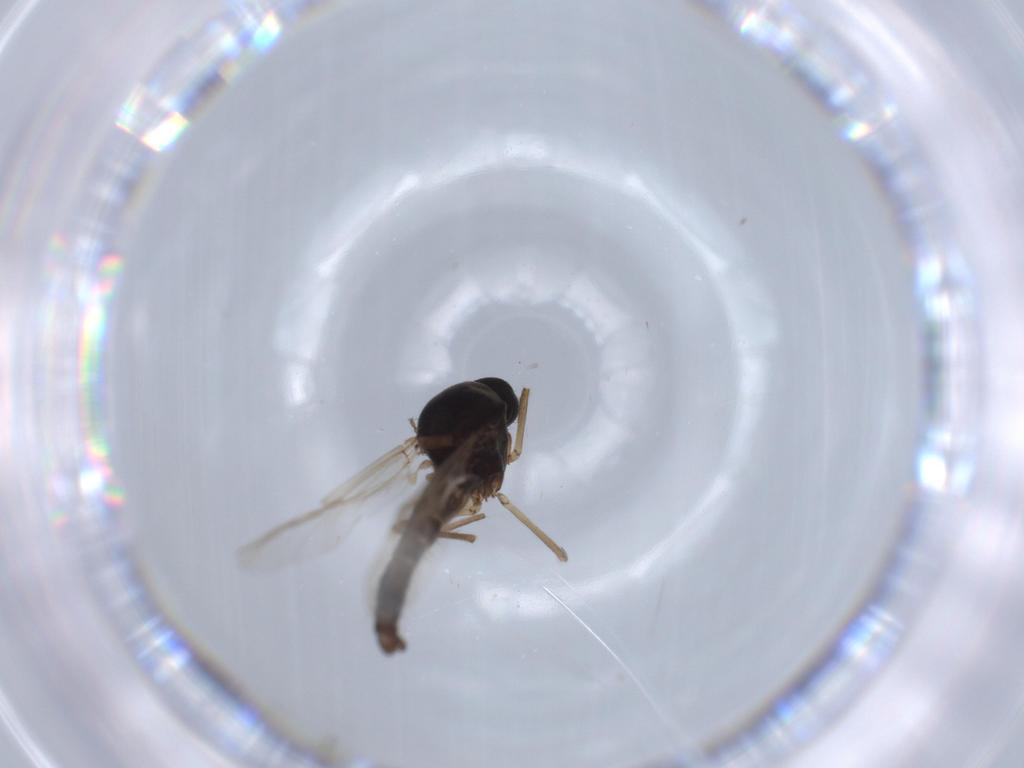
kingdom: Animalia
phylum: Arthropoda
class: Insecta
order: Diptera
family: Ceratopogonidae
